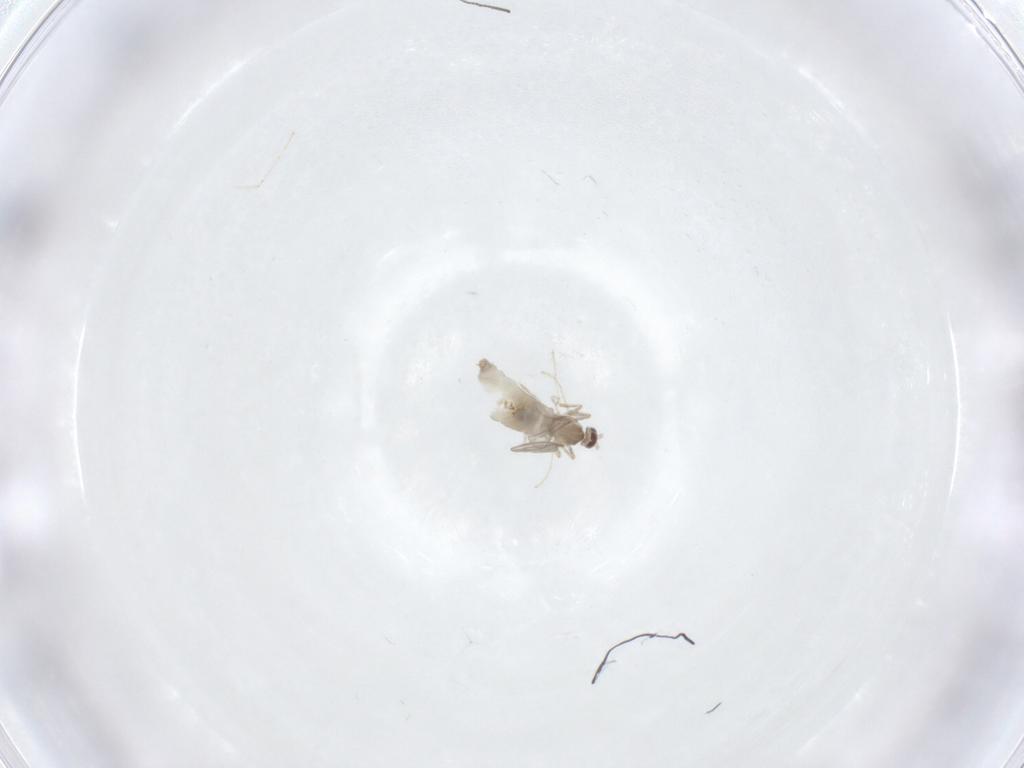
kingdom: Animalia
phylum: Arthropoda
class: Insecta
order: Diptera
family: Cecidomyiidae
